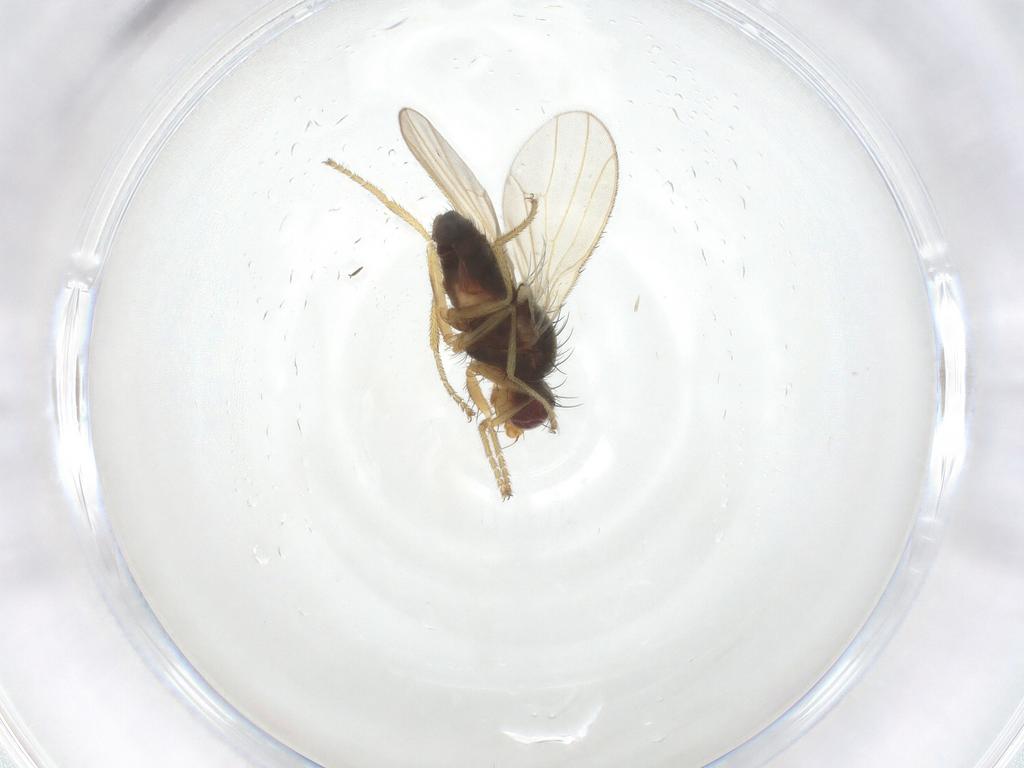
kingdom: Animalia
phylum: Arthropoda
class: Insecta
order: Diptera
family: Heleomyzidae
